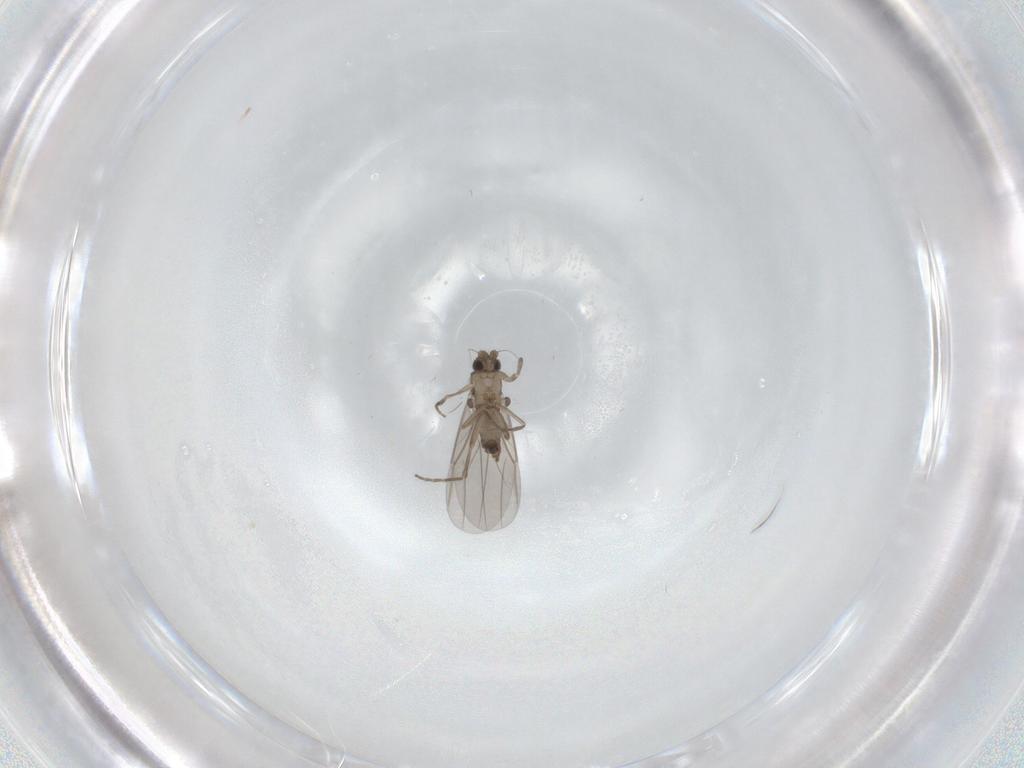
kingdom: Animalia
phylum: Arthropoda
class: Insecta
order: Diptera
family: Phoridae
